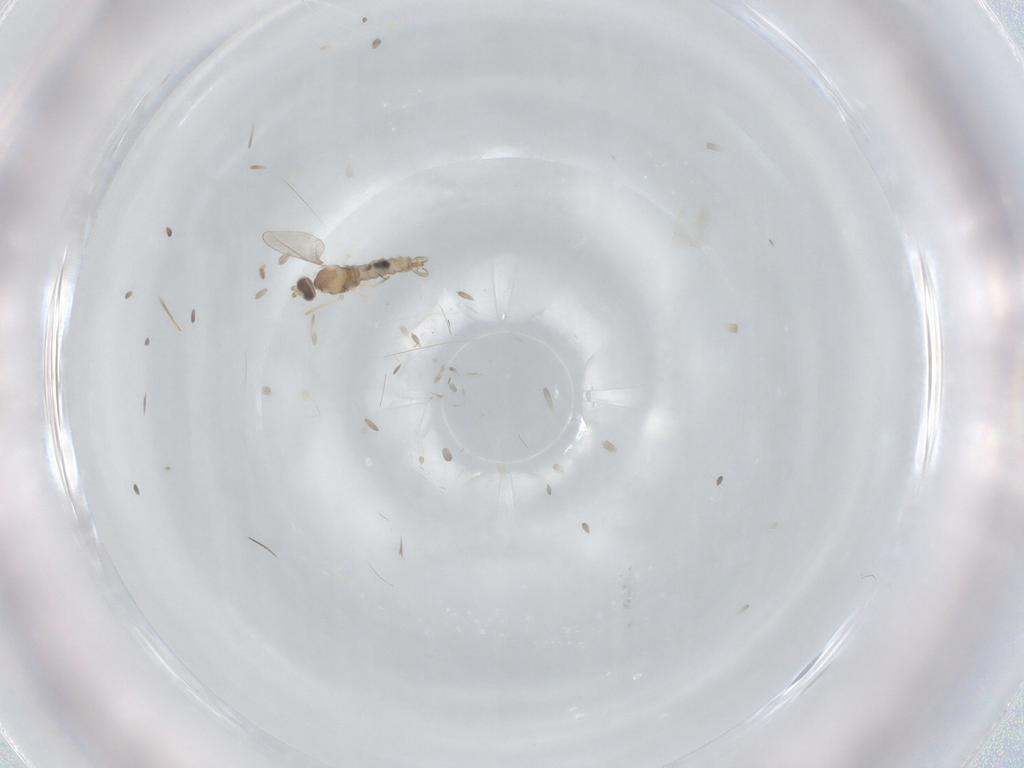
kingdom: Animalia
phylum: Arthropoda
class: Insecta
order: Diptera
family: Cecidomyiidae
